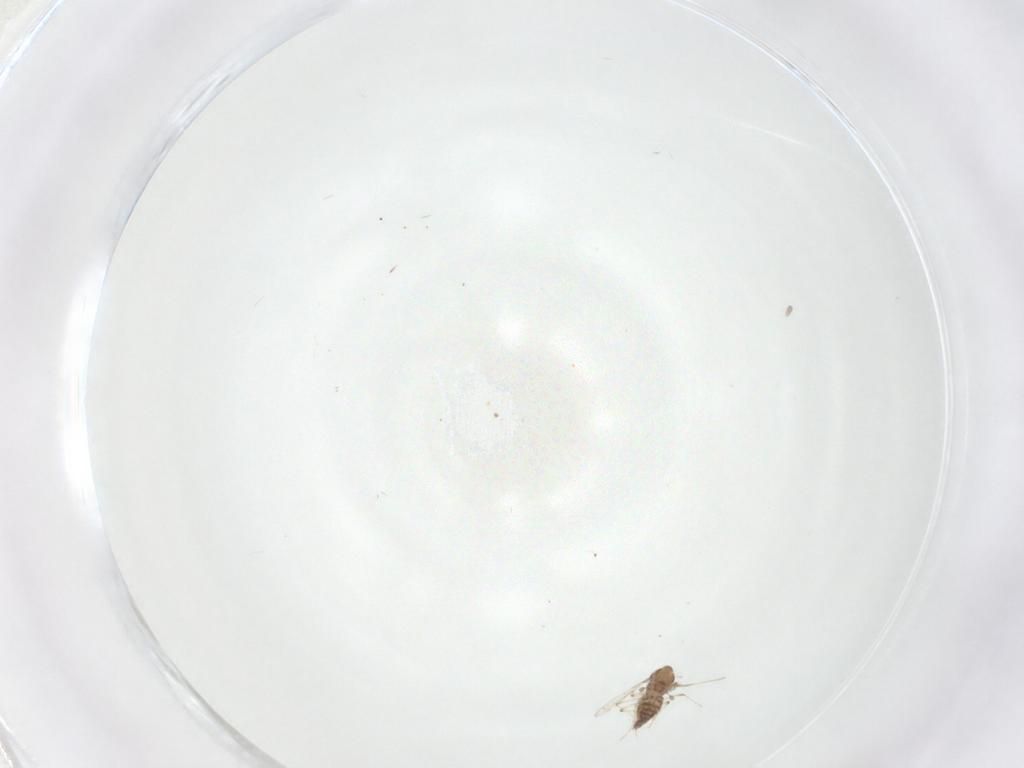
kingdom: Animalia
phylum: Arthropoda
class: Insecta
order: Diptera
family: Chironomidae
